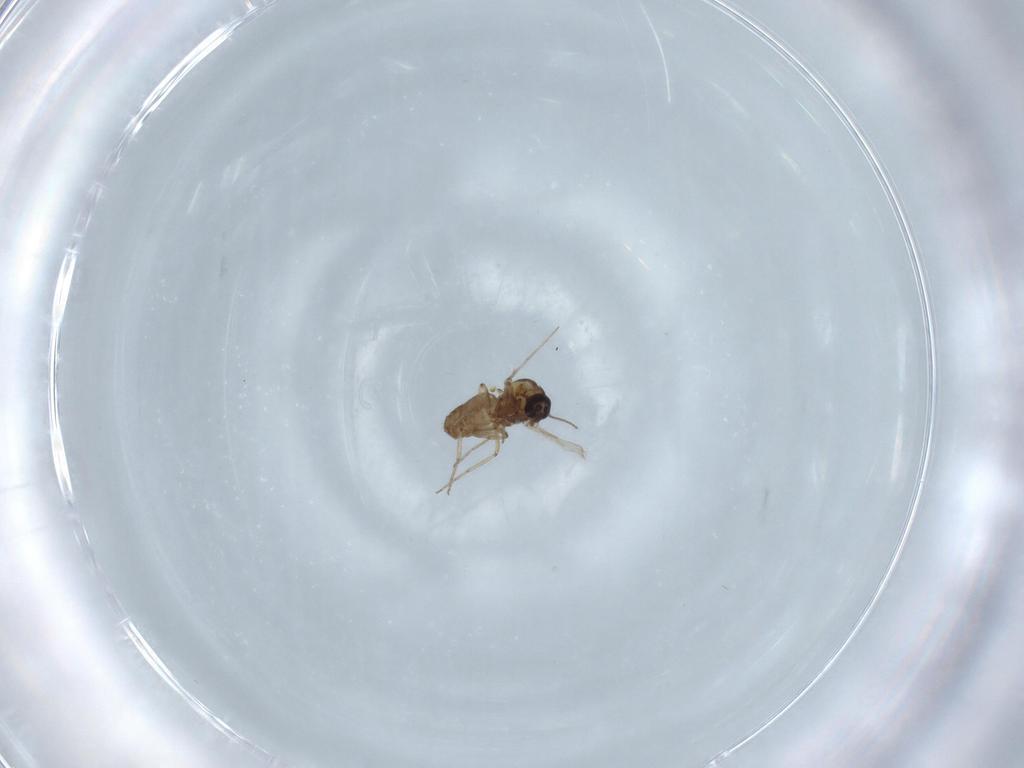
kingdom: Animalia
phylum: Arthropoda
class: Insecta
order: Diptera
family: Ceratopogonidae
